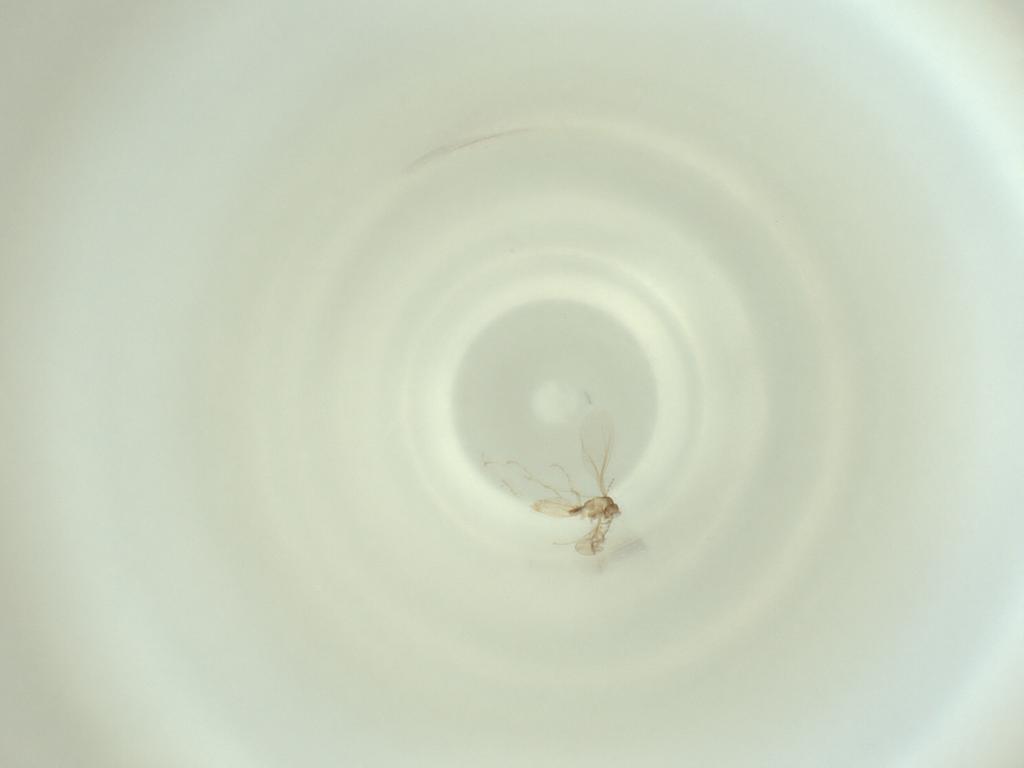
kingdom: Animalia
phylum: Arthropoda
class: Insecta
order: Diptera
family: Cecidomyiidae
